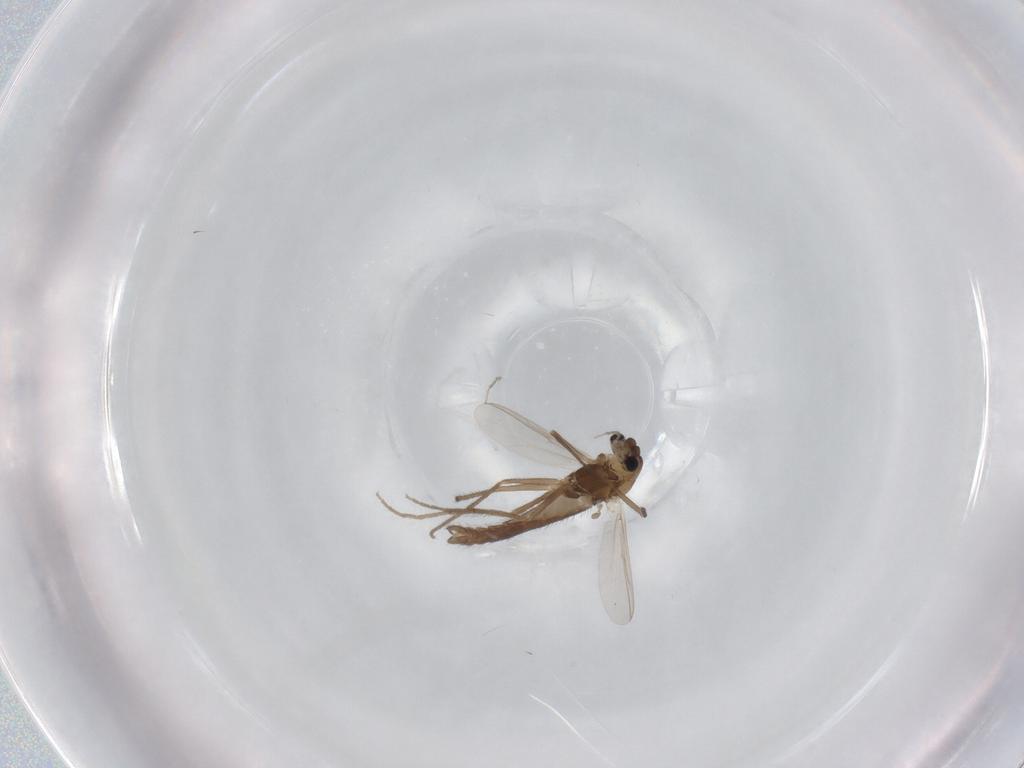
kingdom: Animalia
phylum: Arthropoda
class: Insecta
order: Diptera
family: Chironomidae
